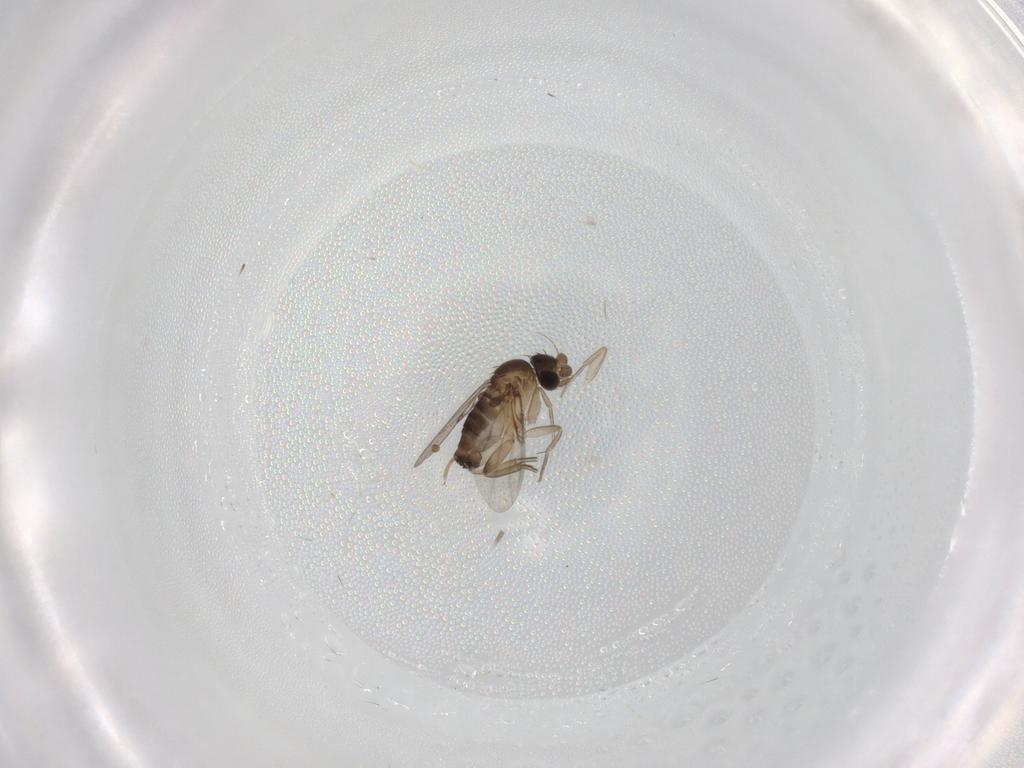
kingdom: Animalia
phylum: Arthropoda
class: Insecta
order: Diptera
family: Phoridae
